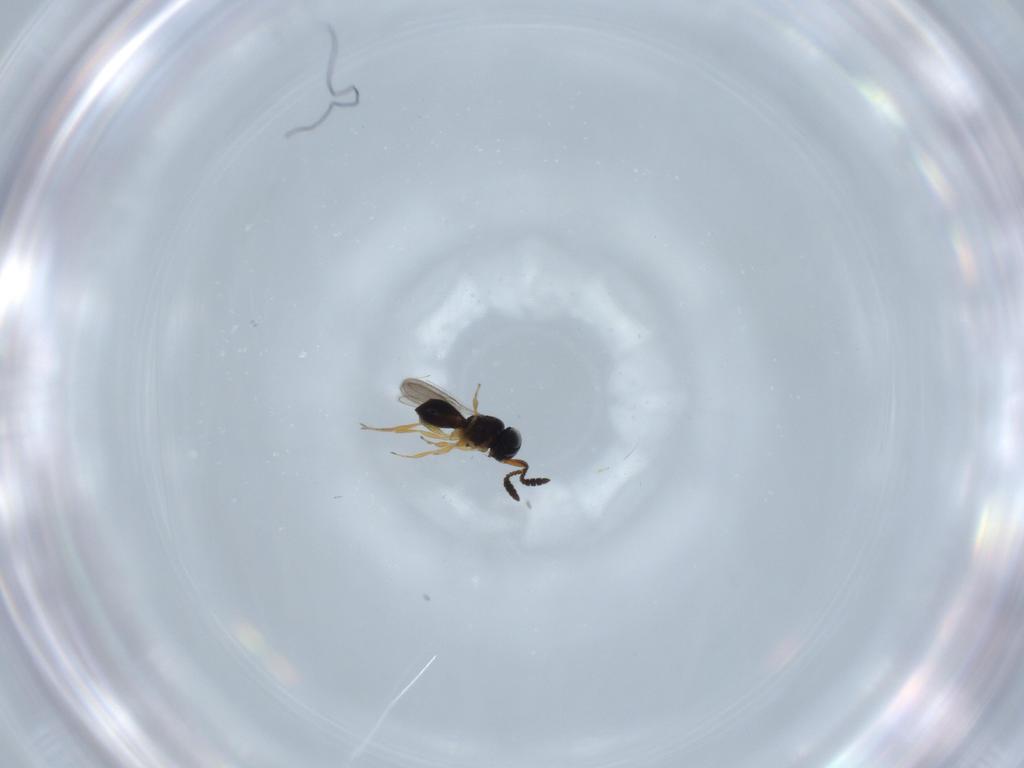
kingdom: Animalia
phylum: Arthropoda
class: Insecta
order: Hymenoptera
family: Scelionidae
